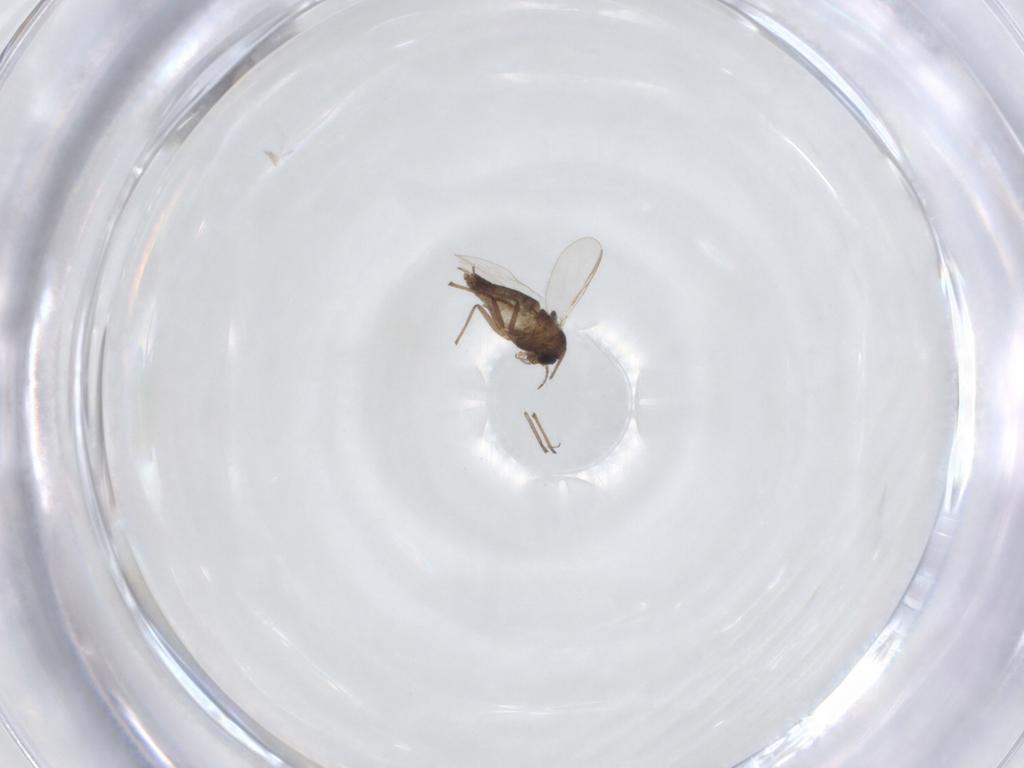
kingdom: Animalia
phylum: Arthropoda
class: Insecta
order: Diptera
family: Chironomidae
